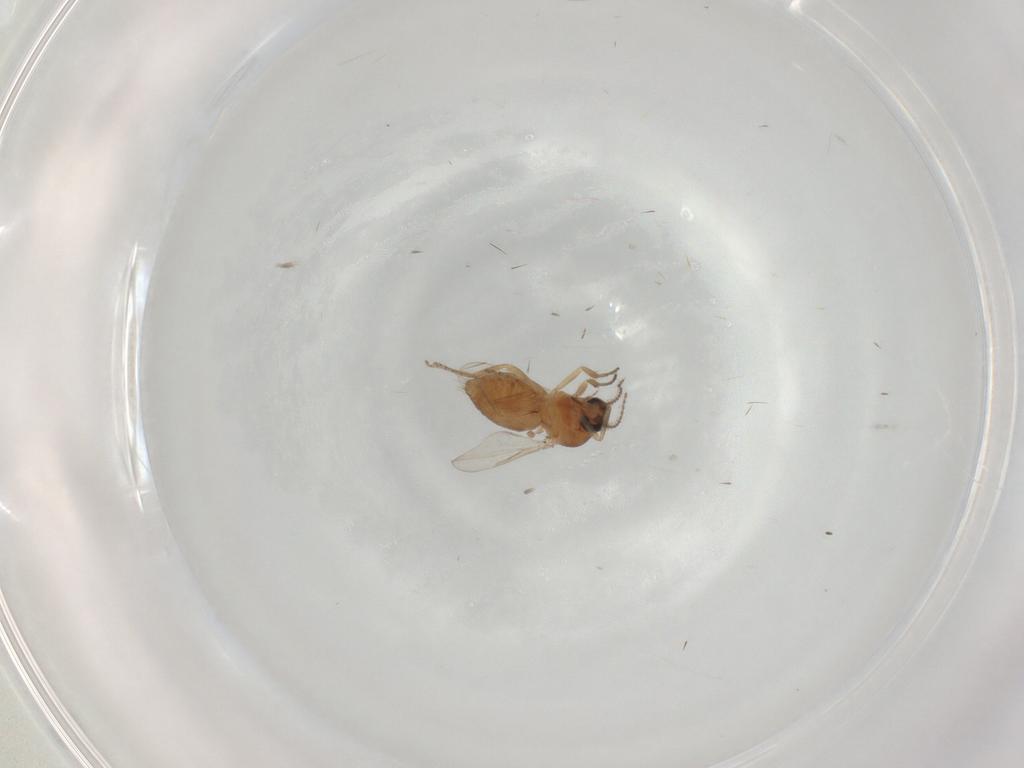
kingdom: Animalia
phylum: Arthropoda
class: Insecta
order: Diptera
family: Ceratopogonidae
